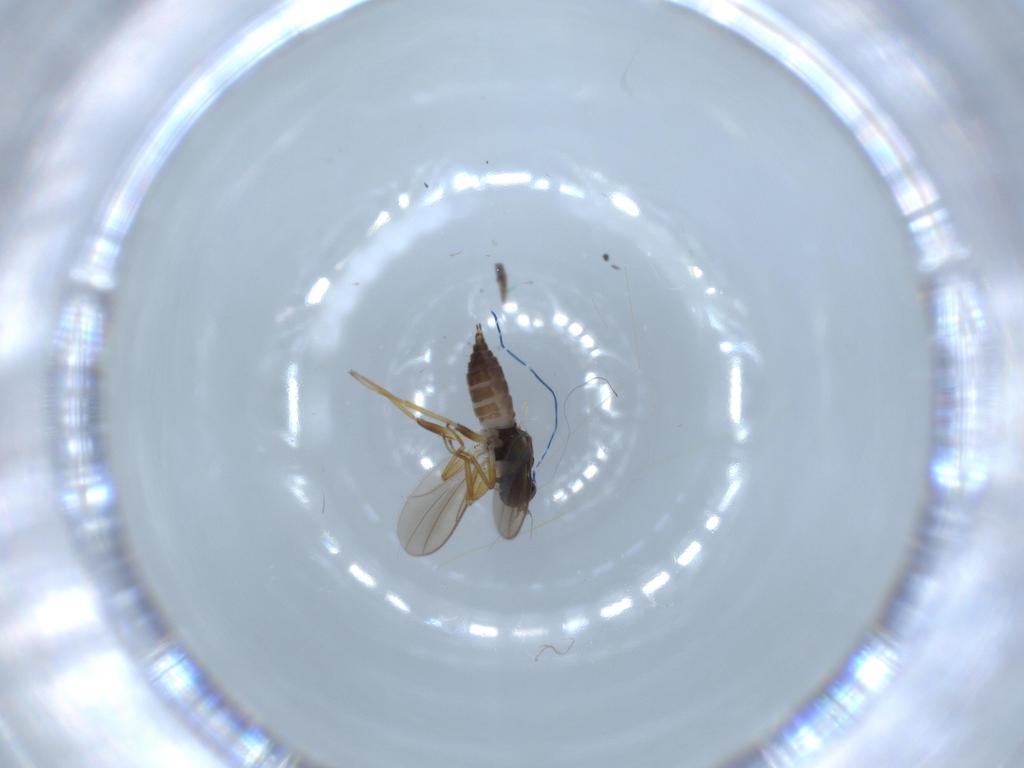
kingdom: Animalia
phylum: Arthropoda
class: Insecta
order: Diptera
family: Hybotidae
